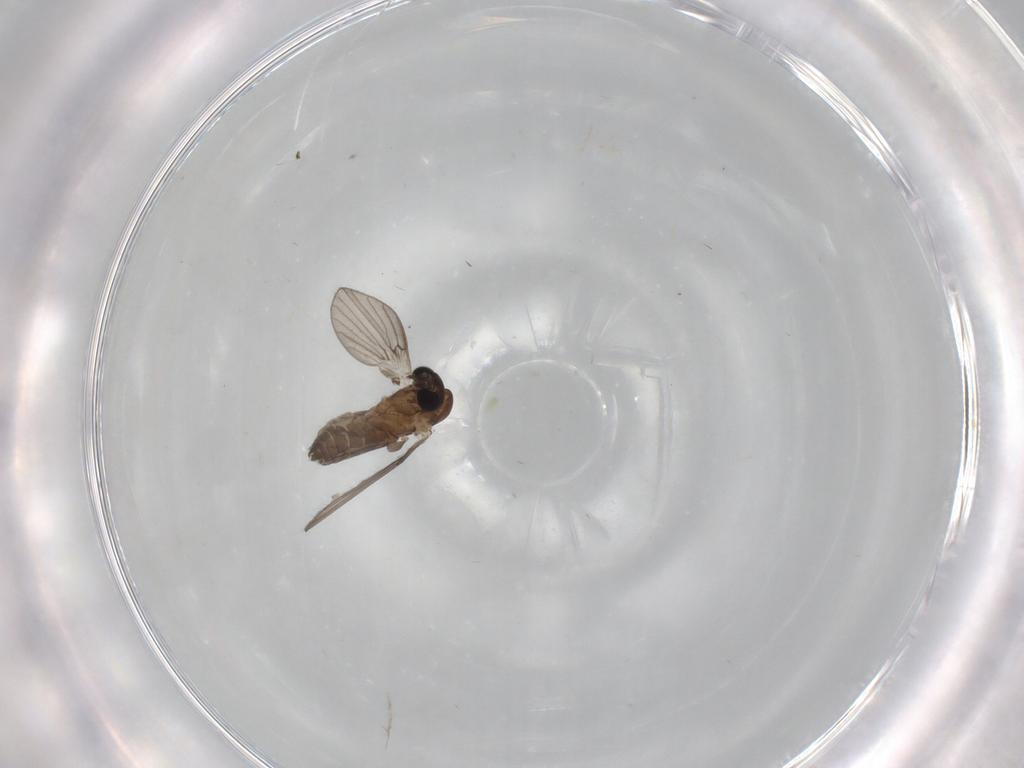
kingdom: Animalia
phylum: Arthropoda
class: Insecta
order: Diptera
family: Psychodidae
